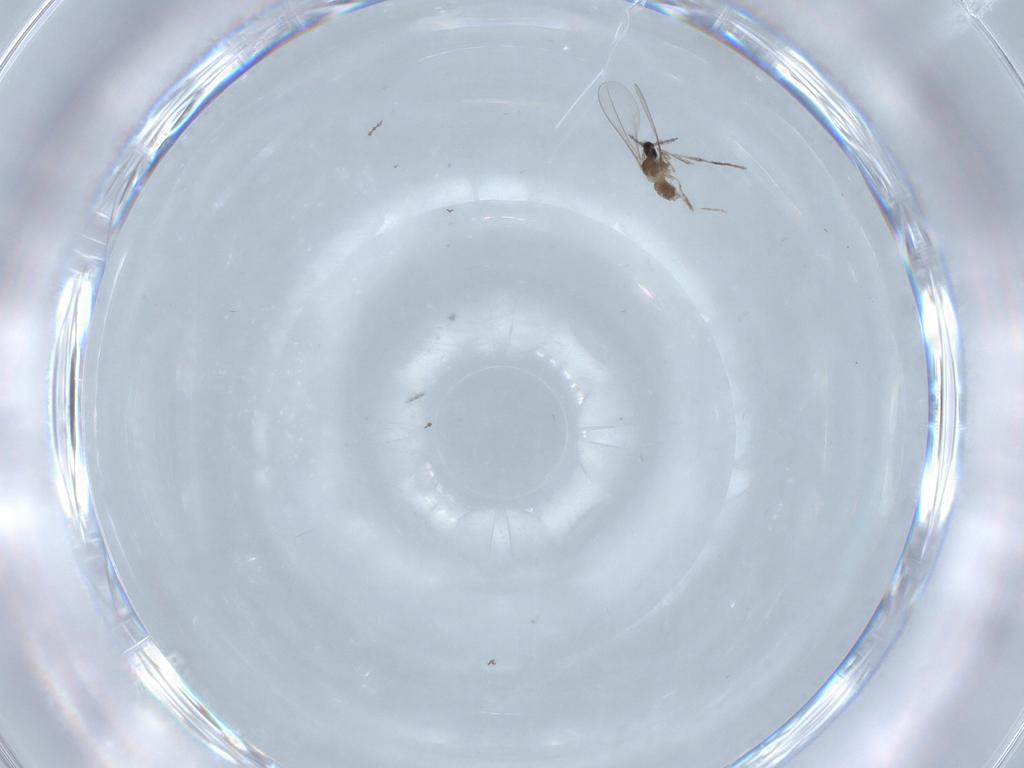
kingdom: Animalia
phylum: Arthropoda
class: Insecta
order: Diptera
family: Cecidomyiidae
